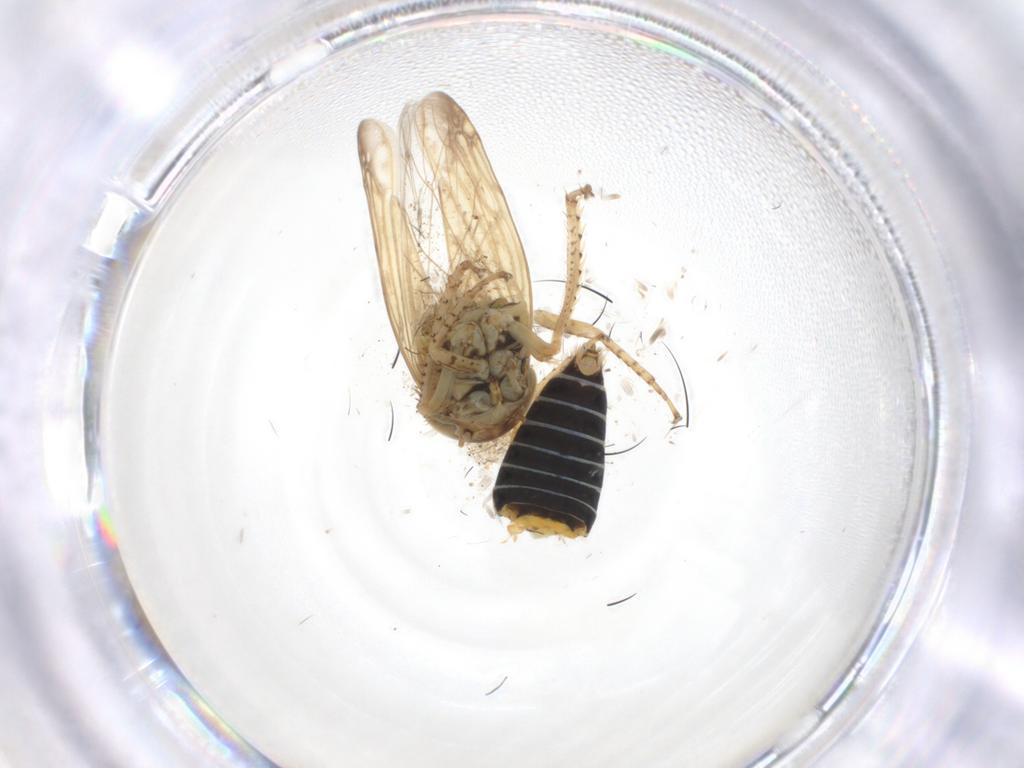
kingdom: Animalia
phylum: Arthropoda
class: Insecta
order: Hemiptera
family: Cicadellidae
